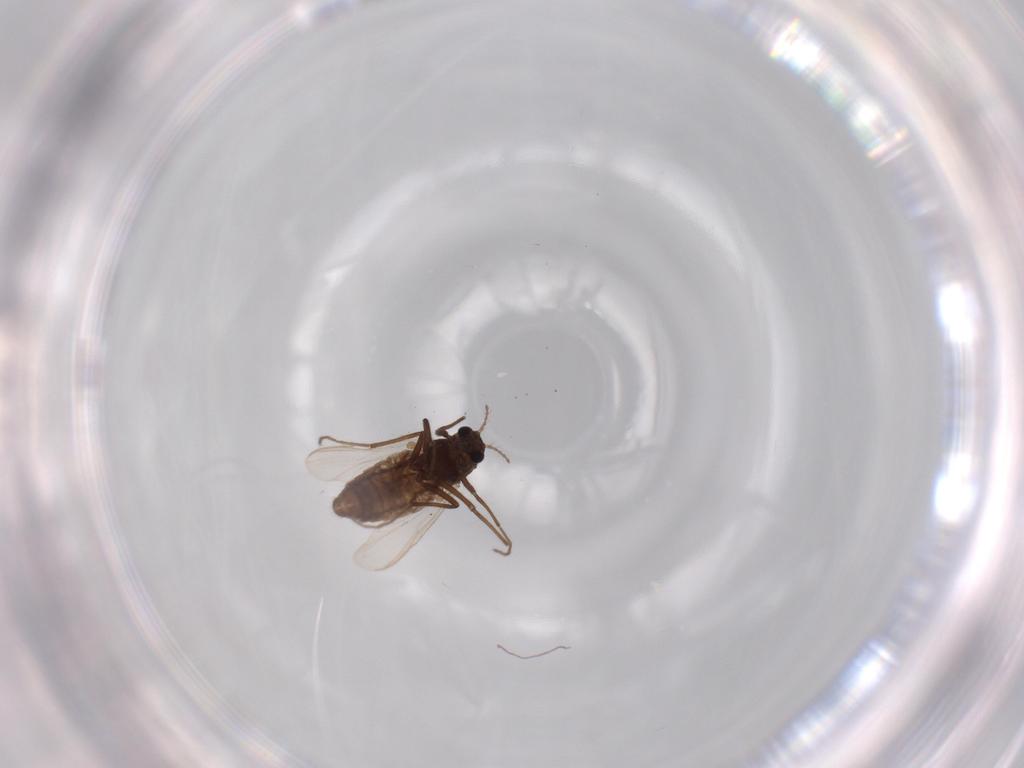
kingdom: Animalia
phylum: Arthropoda
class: Insecta
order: Diptera
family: Chironomidae
